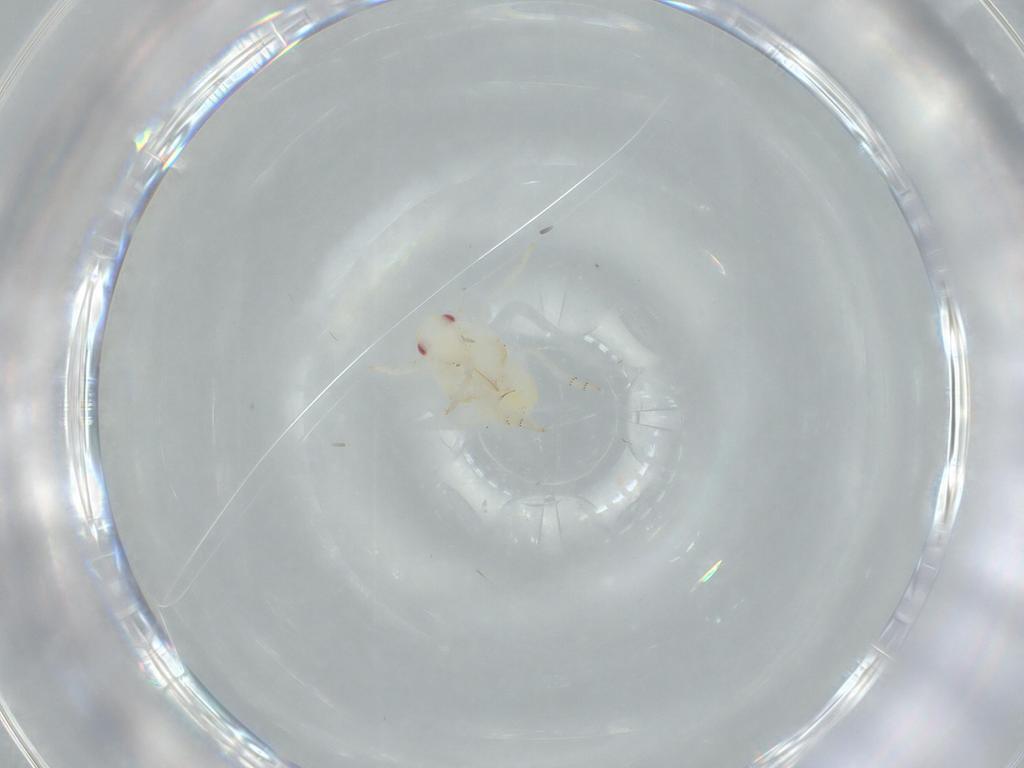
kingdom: Animalia
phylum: Arthropoda
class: Insecta
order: Hemiptera
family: Flatidae
